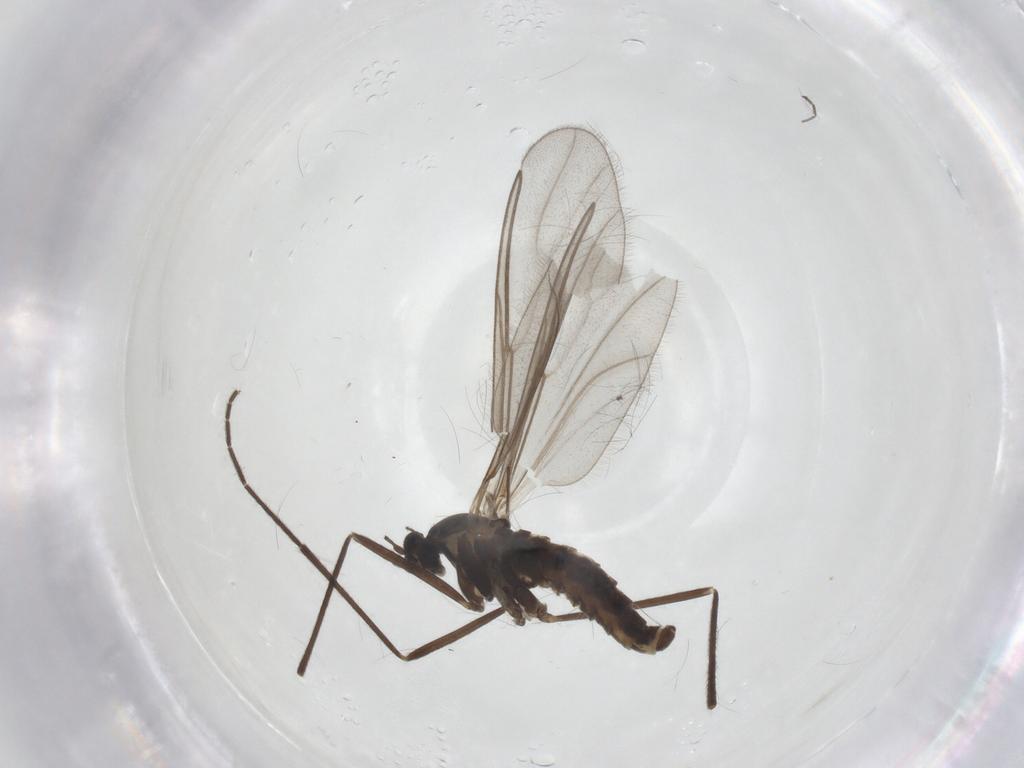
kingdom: Animalia
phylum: Arthropoda
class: Insecta
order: Diptera
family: Cecidomyiidae
